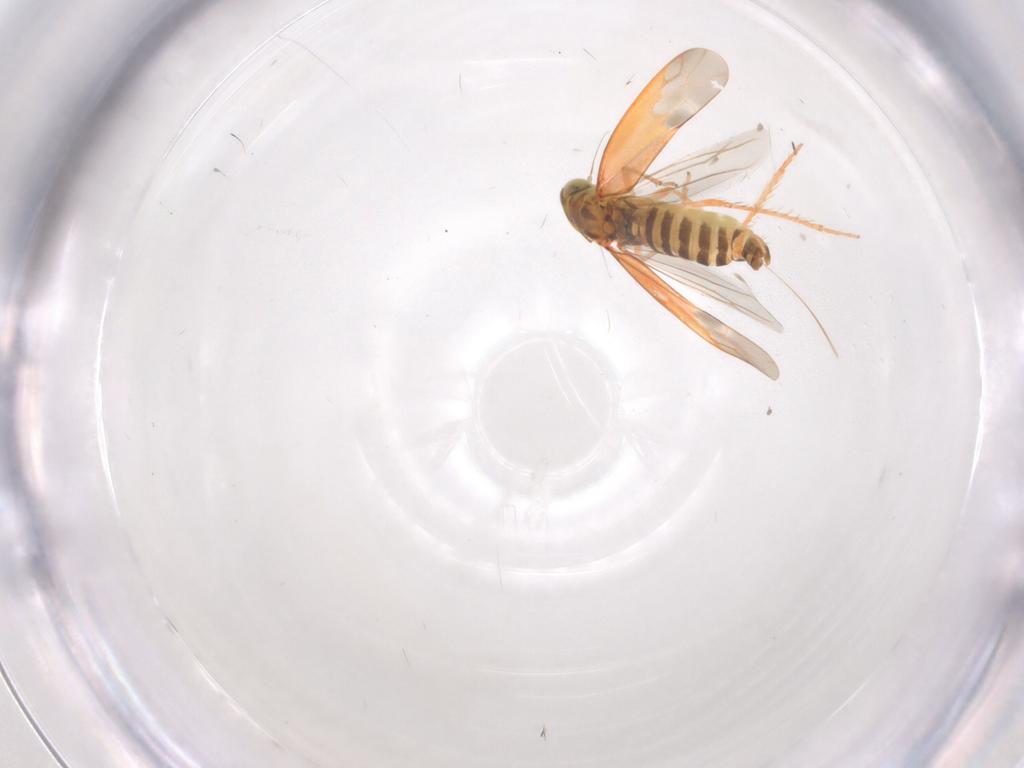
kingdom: Animalia
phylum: Arthropoda
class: Insecta
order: Hemiptera
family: Cicadellidae
